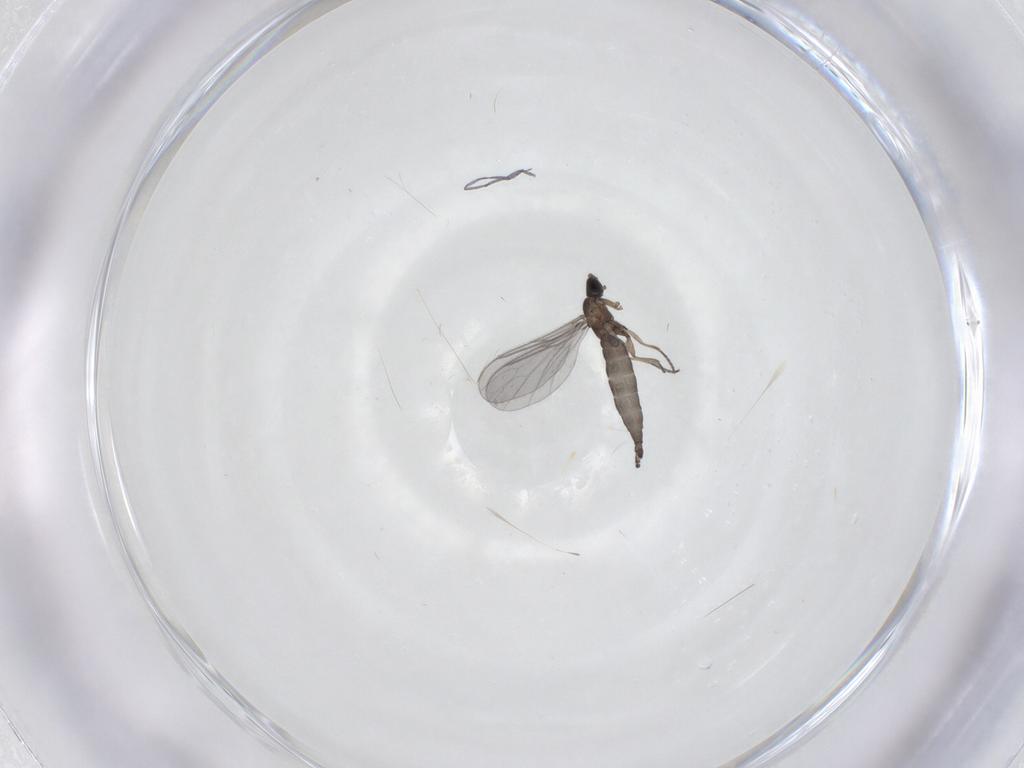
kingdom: Animalia
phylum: Arthropoda
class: Insecta
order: Diptera
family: Sciaridae
